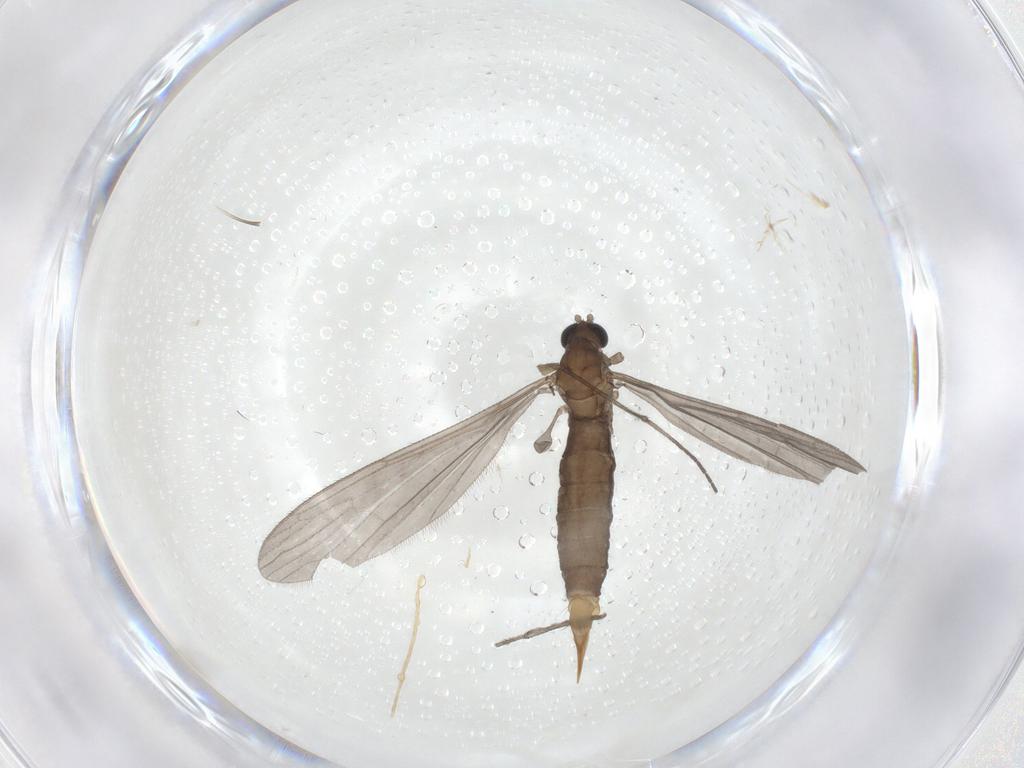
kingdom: Animalia
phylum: Arthropoda
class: Insecta
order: Diptera
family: Limoniidae
